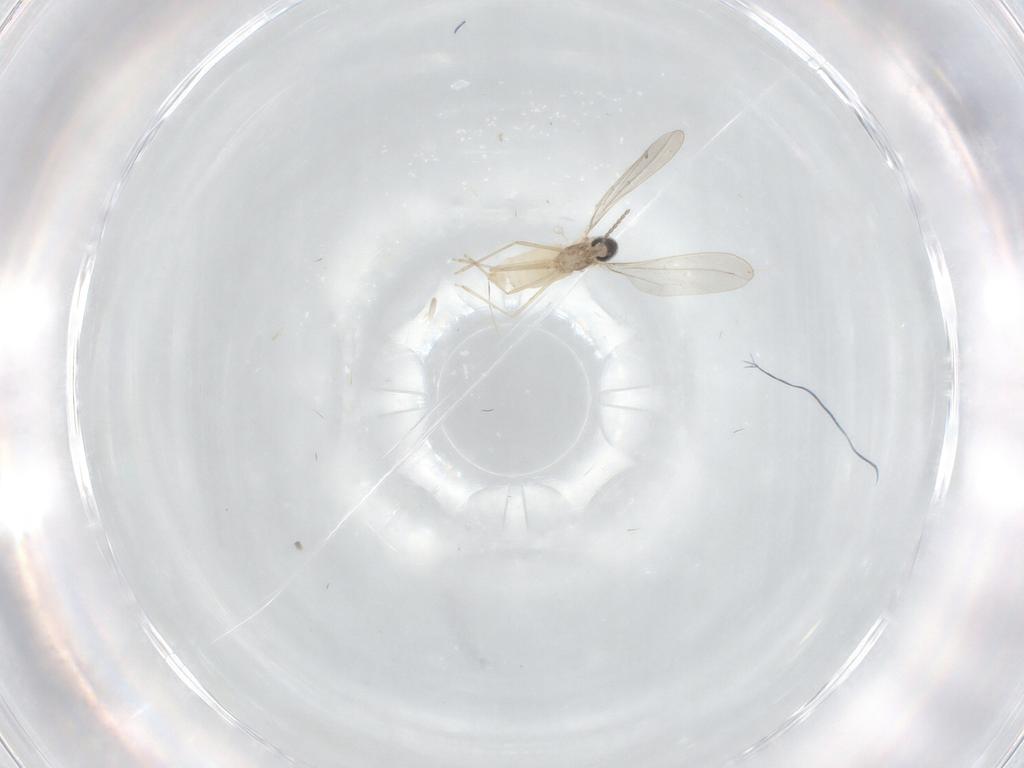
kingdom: Animalia
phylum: Arthropoda
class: Insecta
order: Diptera
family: Cecidomyiidae
